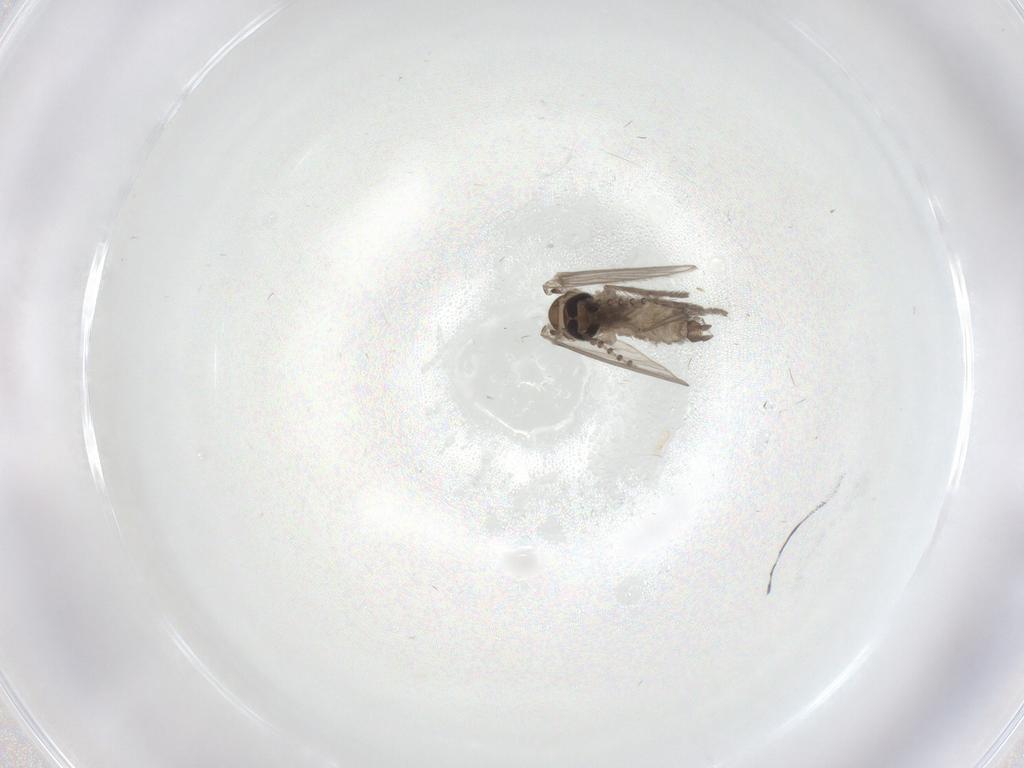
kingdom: Animalia
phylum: Arthropoda
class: Insecta
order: Diptera
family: Psychodidae
